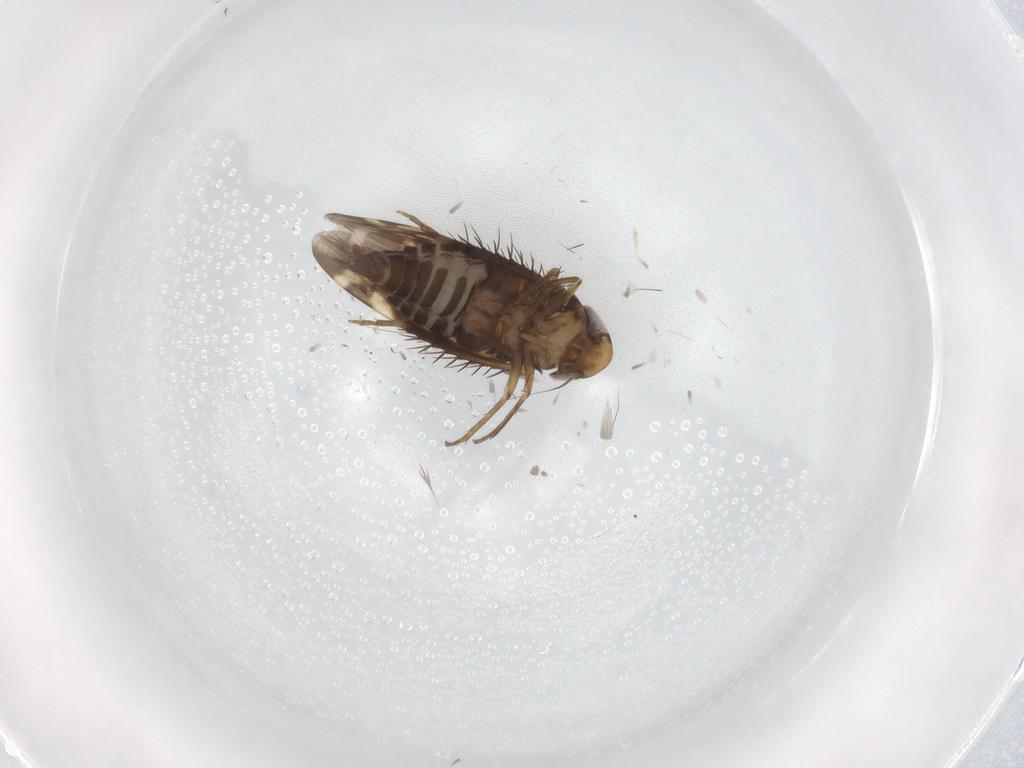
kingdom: Animalia
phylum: Arthropoda
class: Insecta
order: Hemiptera
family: Cicadellidae
